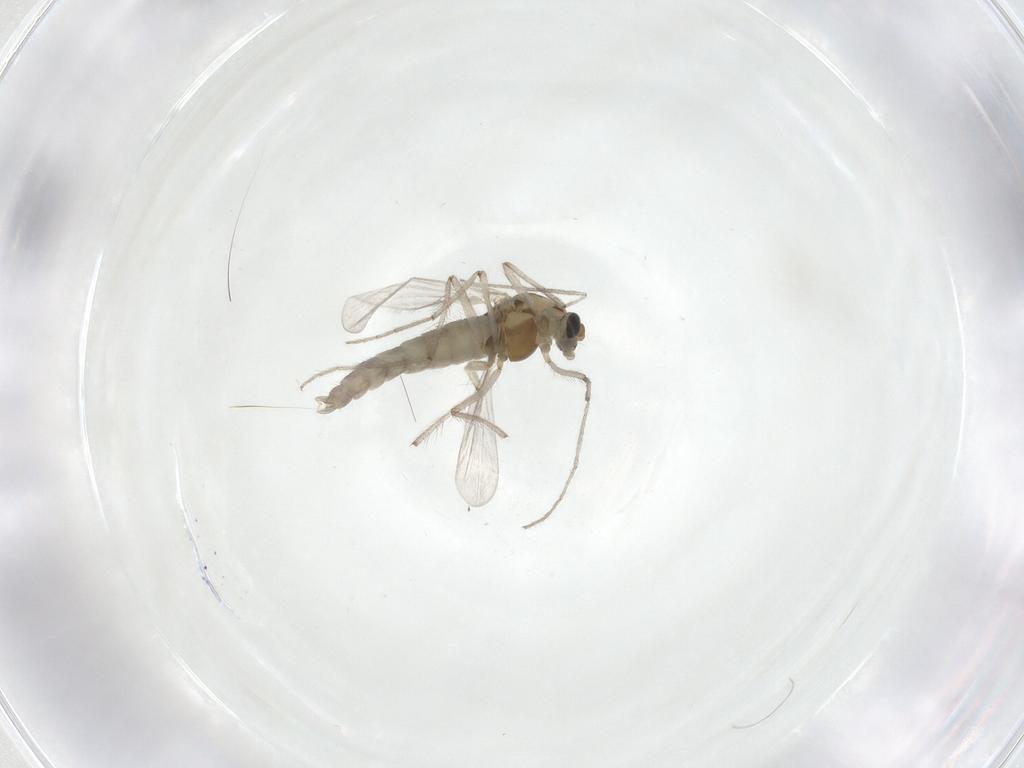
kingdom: Animalia
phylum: Arthropoda
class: Insecta
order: Diptera
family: Chironomidae
